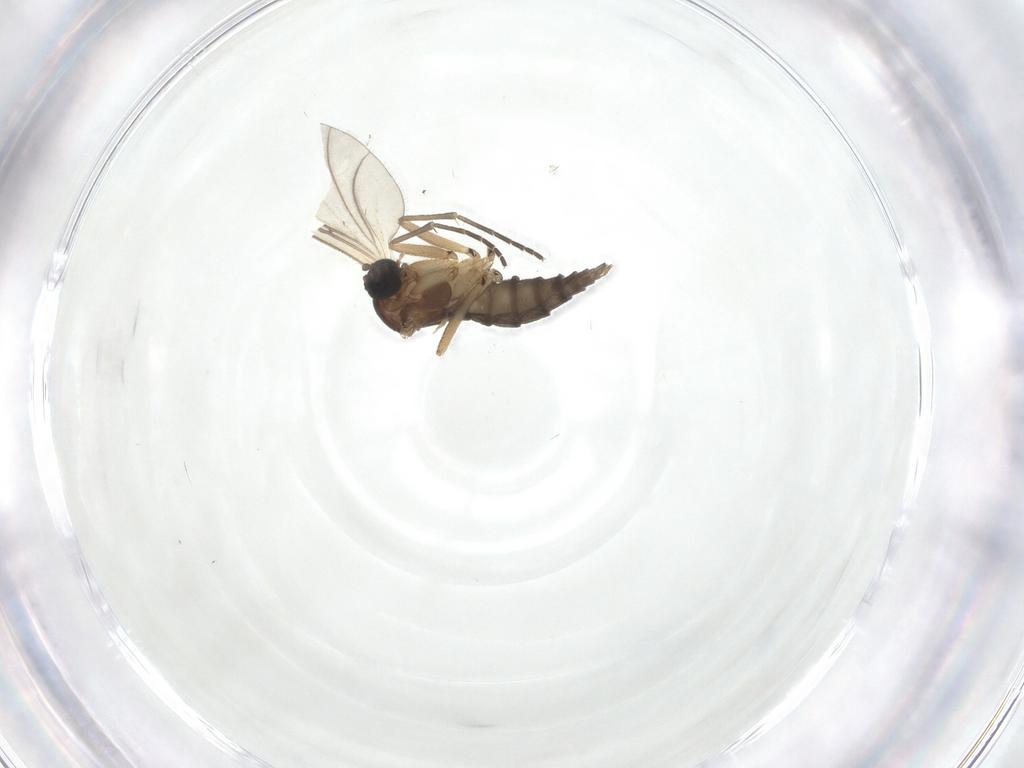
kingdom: Animalia
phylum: Arthropoda
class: Insecta
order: Diptera
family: Sciaridae
